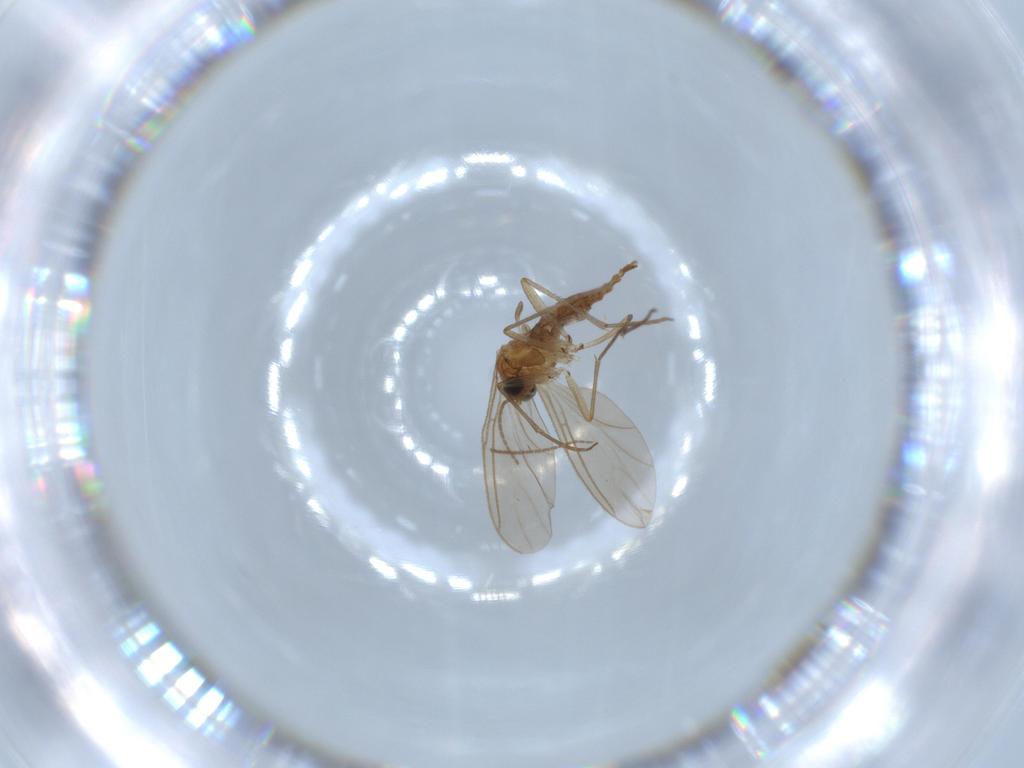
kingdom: Animalia
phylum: Arthropoda
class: Insecta
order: Diptera
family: Sciaridae
